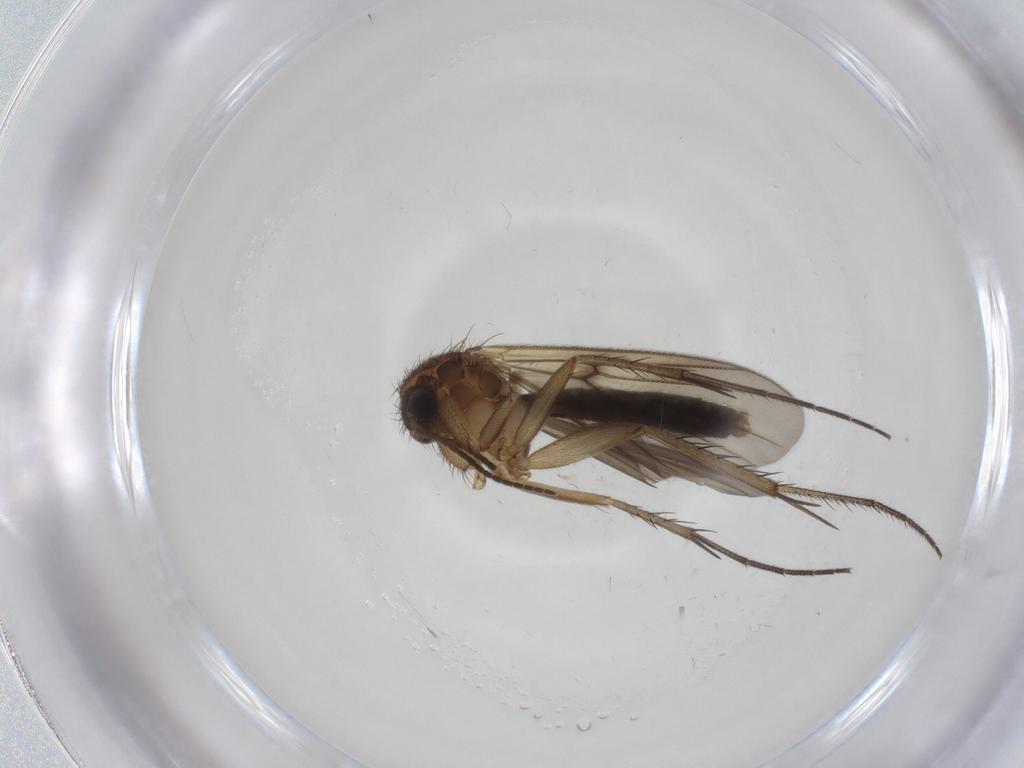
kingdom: Animalia
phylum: Arthropoda
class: Insecta
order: Diptera
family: Mycetophilidae
